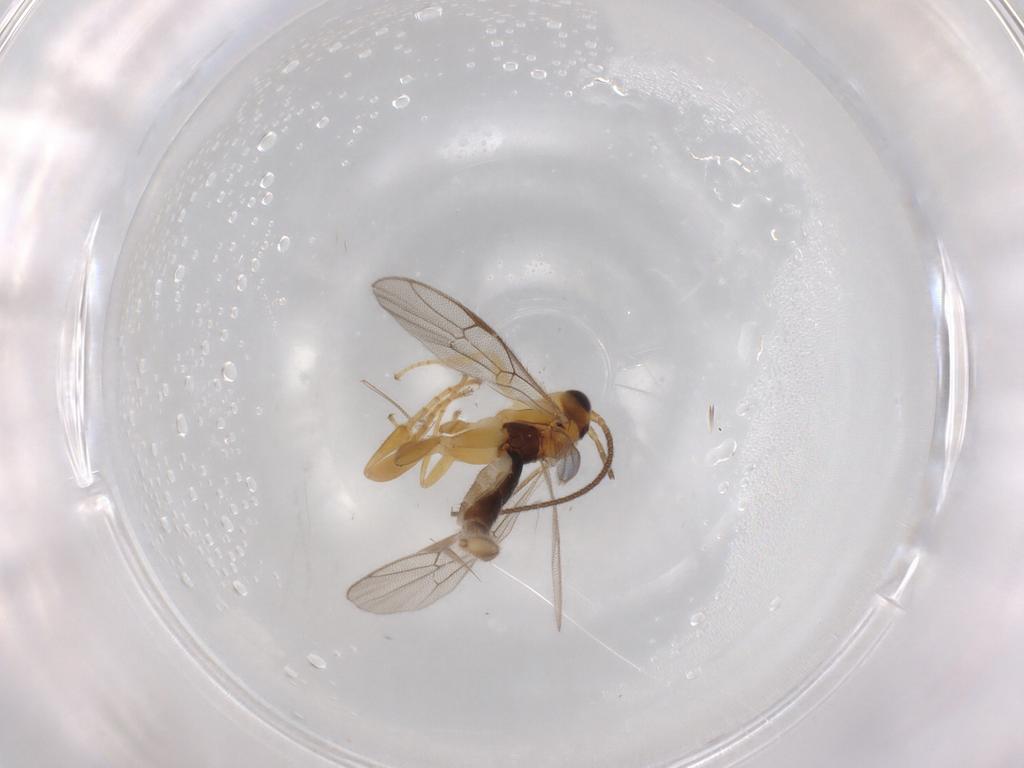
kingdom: Animalia
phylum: Arthropoda
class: Insecta
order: Hymenoptera
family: Ichneumonidae
